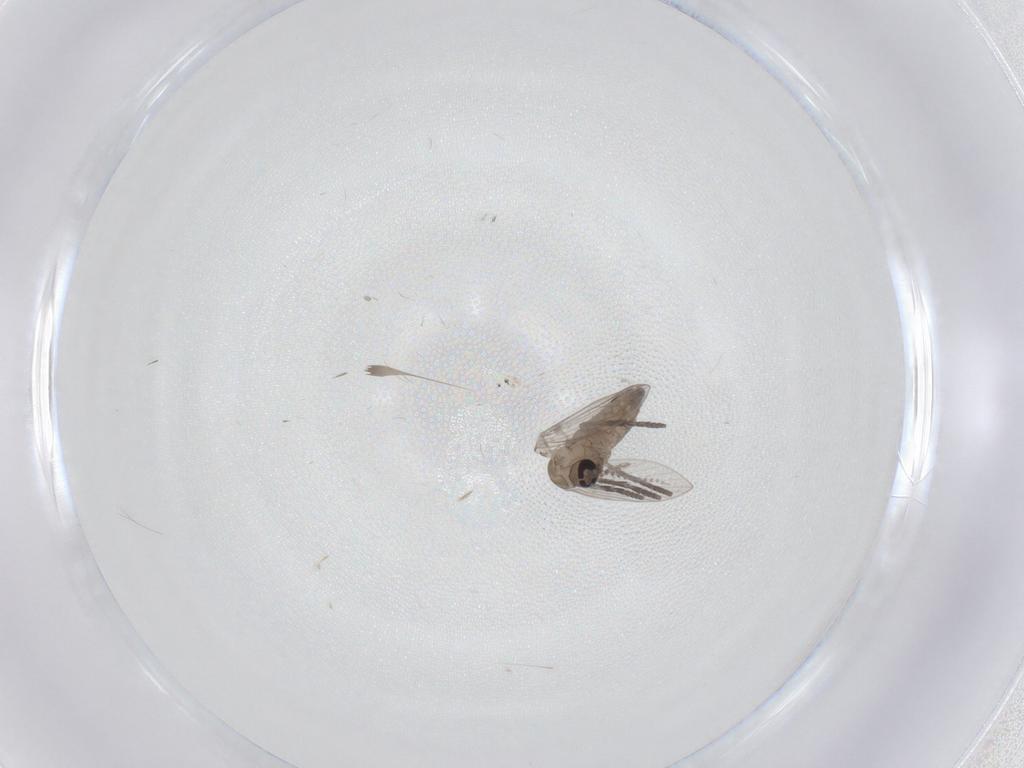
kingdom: Animalia
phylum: Arthropoda
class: Insecta
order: Diptera
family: Psychodidae
